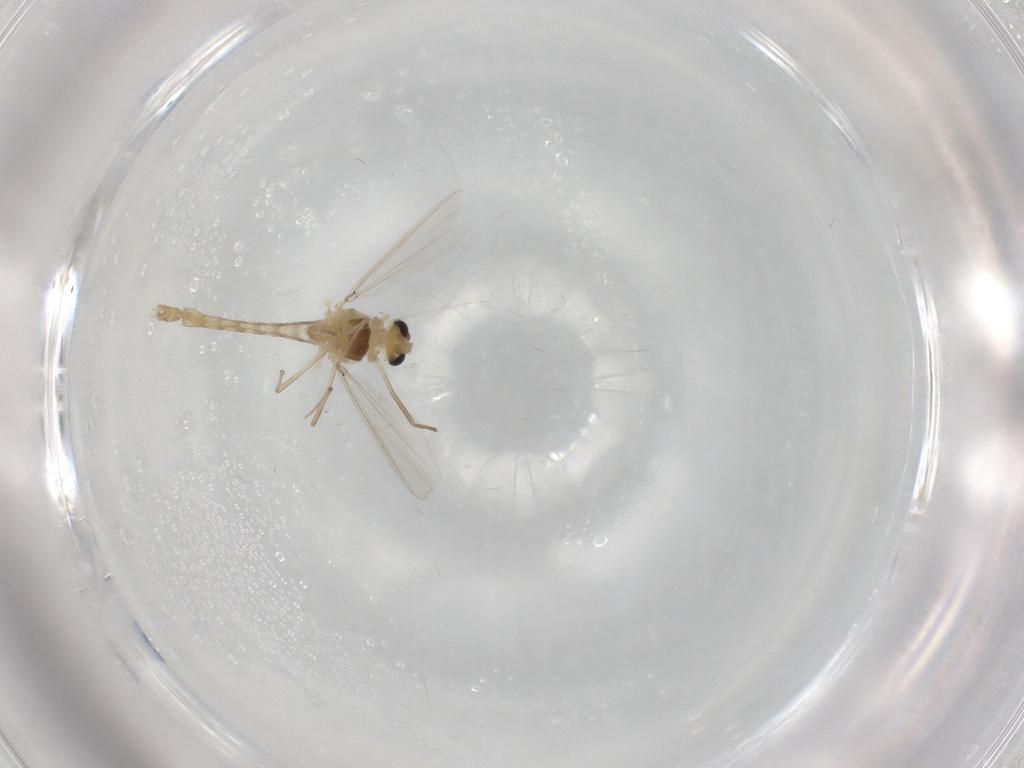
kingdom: Animalia
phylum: Arthropoda
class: Insecta
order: Diptera
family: Chironomidae
